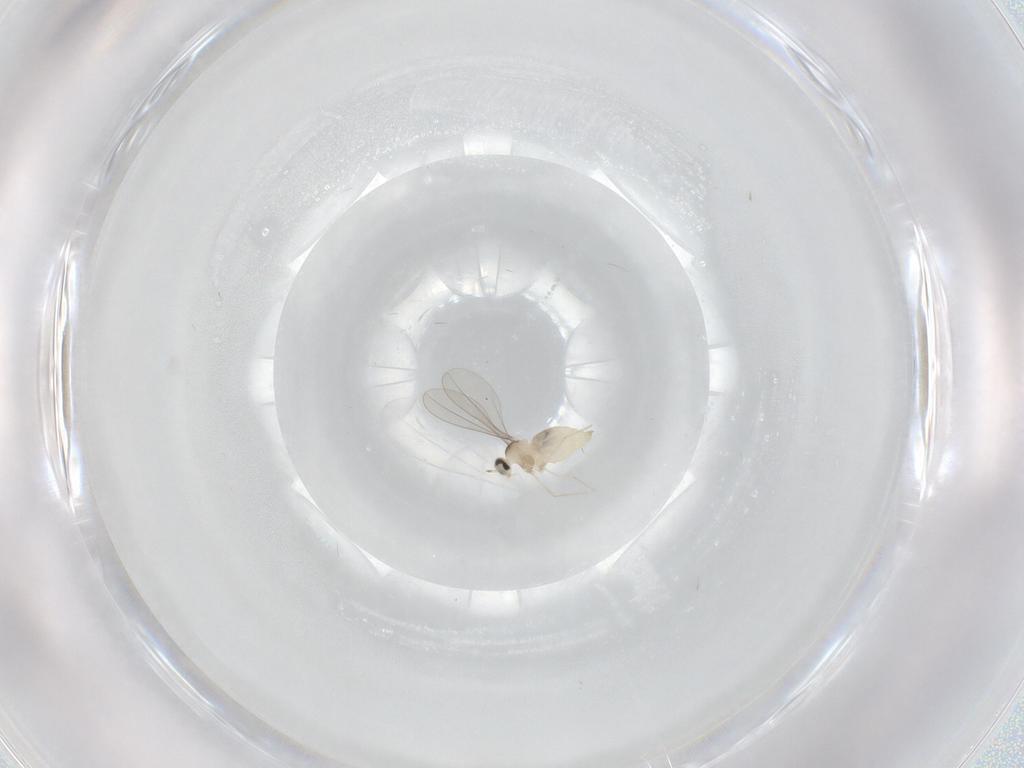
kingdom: Animalia
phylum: Arthropoda
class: Insecta
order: Diptera
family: Cecidomyiidae
